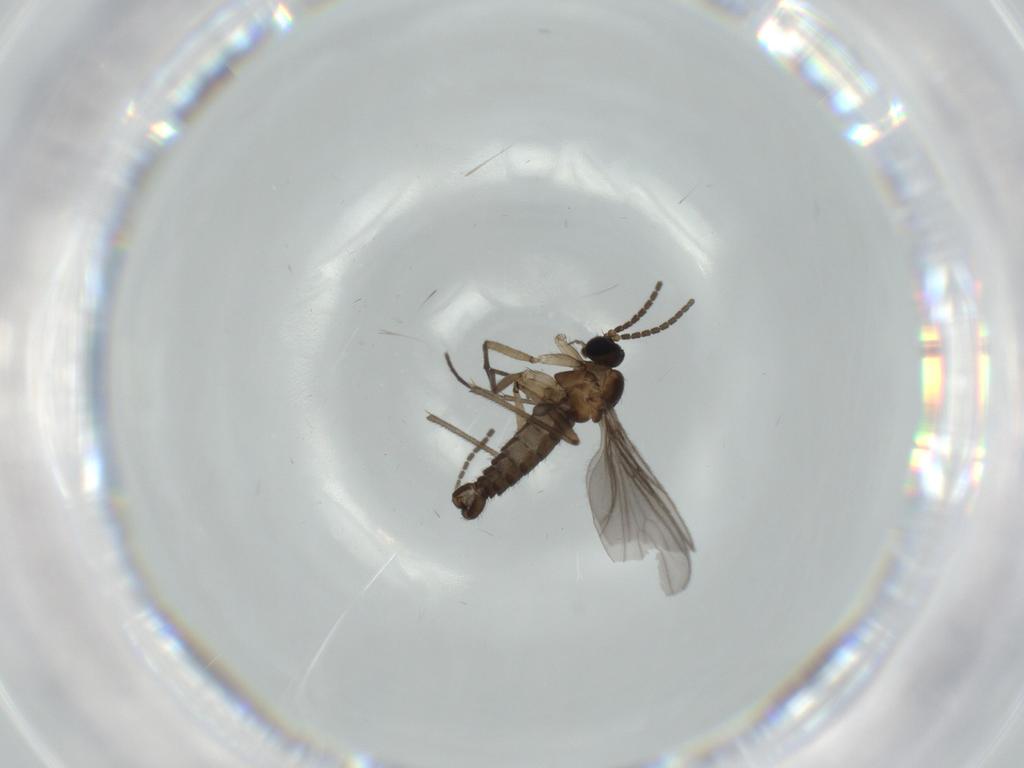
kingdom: Animalia
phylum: Arthropoda
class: Insecta
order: Diptera
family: Sciaridae
